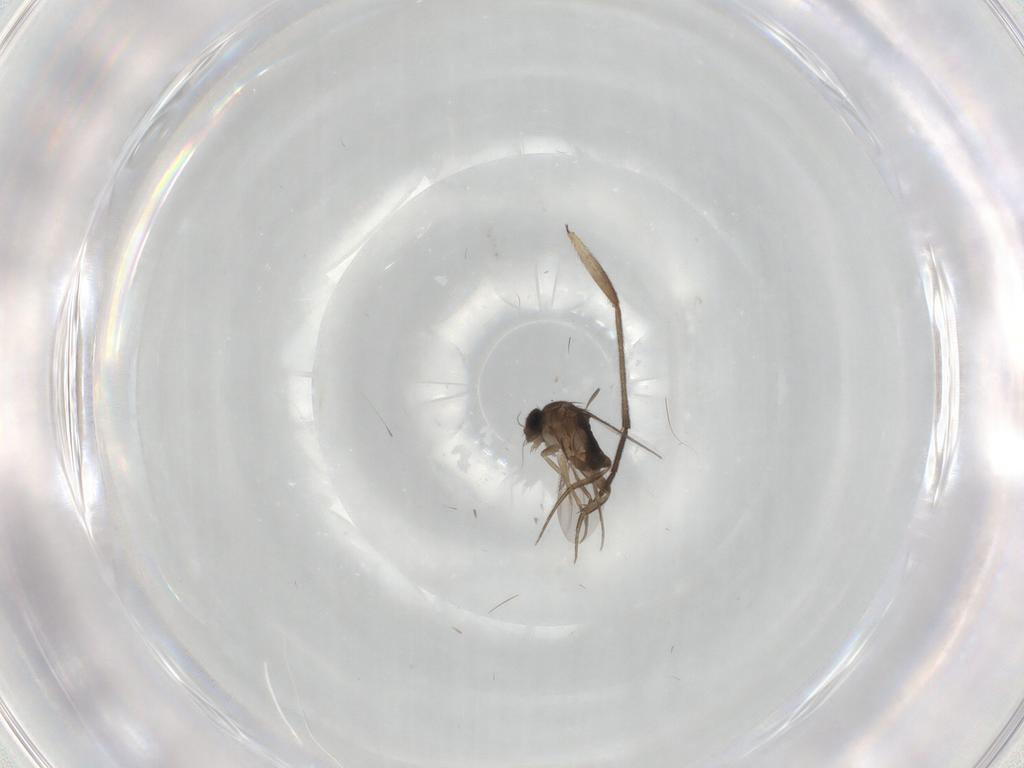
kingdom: Animalia
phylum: Arthropoda
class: Insecta
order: Diptera
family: Phoridae
